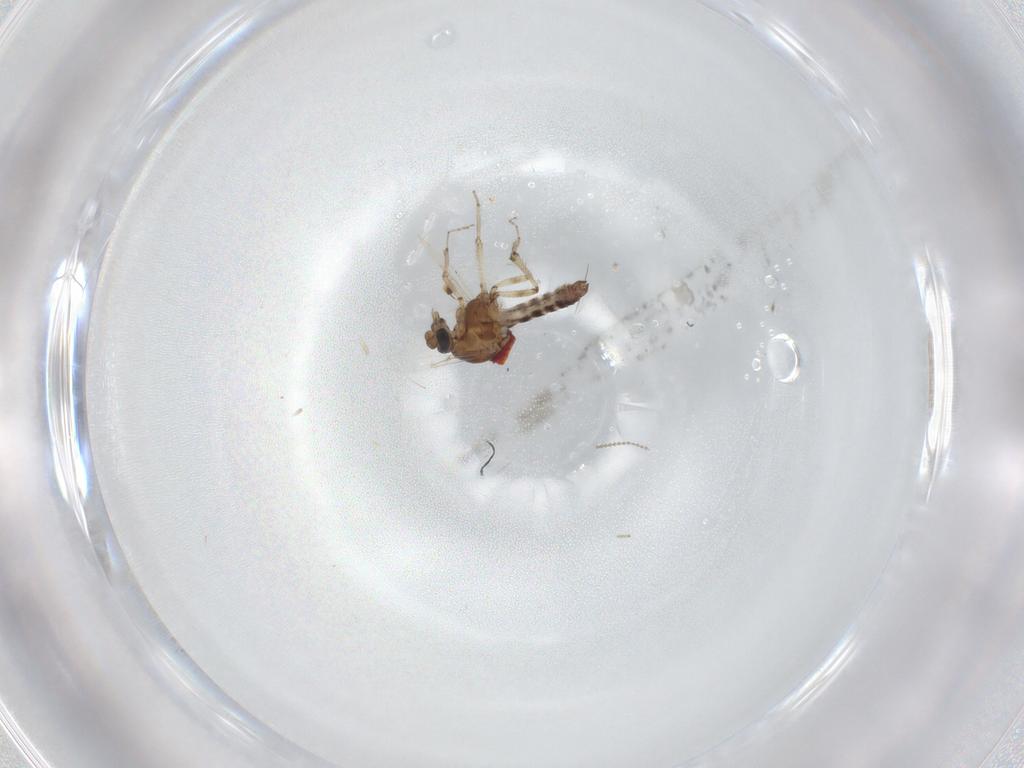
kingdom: Animalia
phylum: Arthropoda
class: Insecta
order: Diptera
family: Ceratopogonidae
